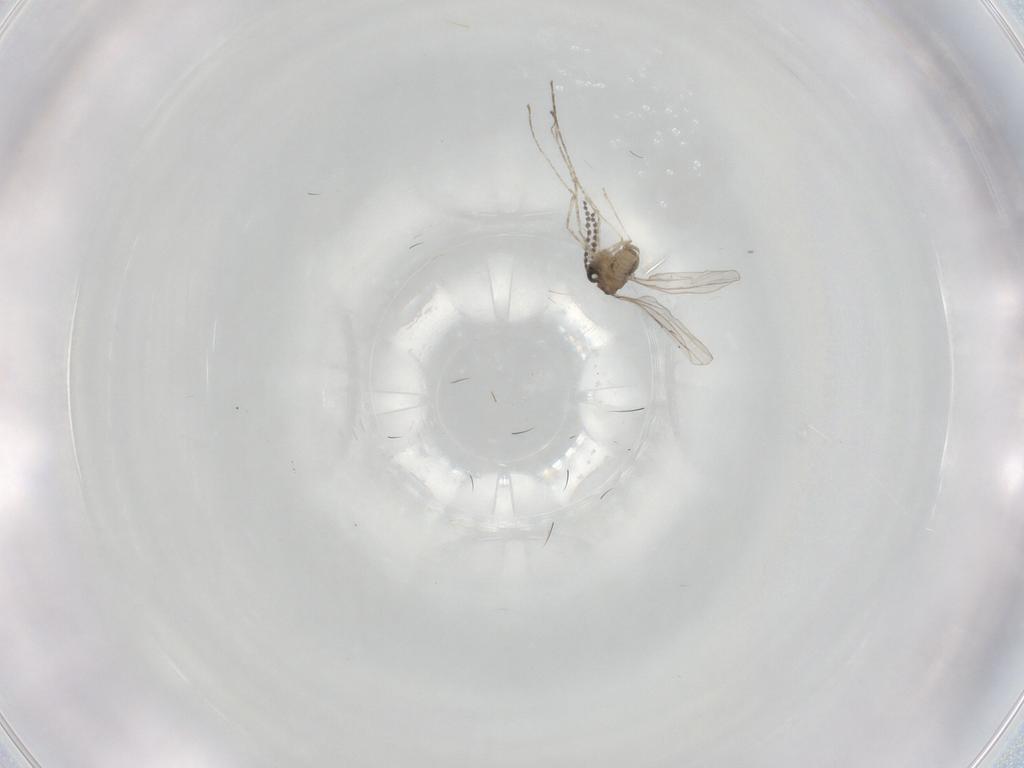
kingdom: Animalia
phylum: Arthropoda
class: Insecta
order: Diptera
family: Cecidomyiidae
